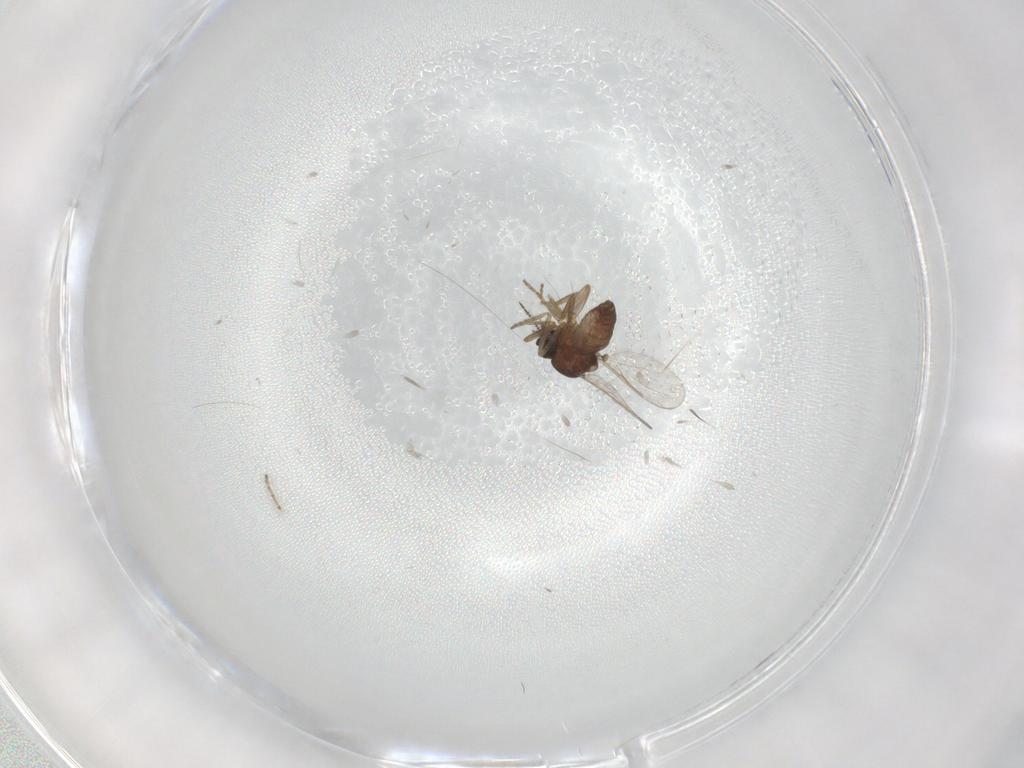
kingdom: Animalia
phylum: Arthropoda
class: Insecta
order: Diptera
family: Ceratopogonidae
